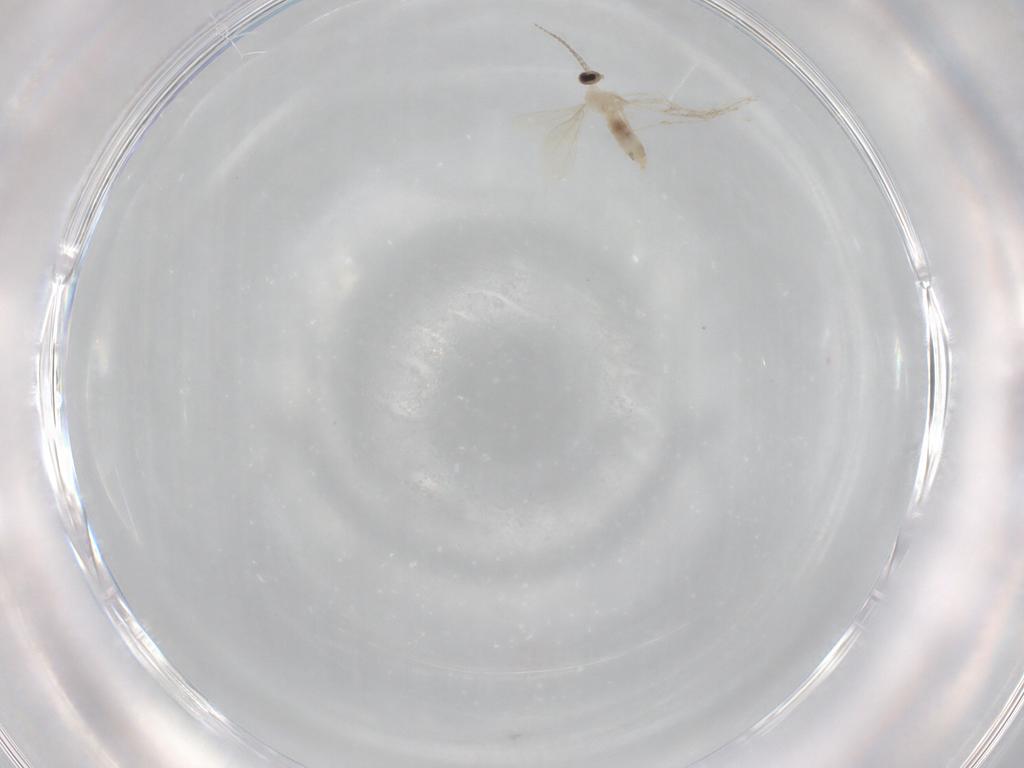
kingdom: Animalia
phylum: Arthropoda
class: Insecta
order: Diptera
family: Cecidomyiidae
